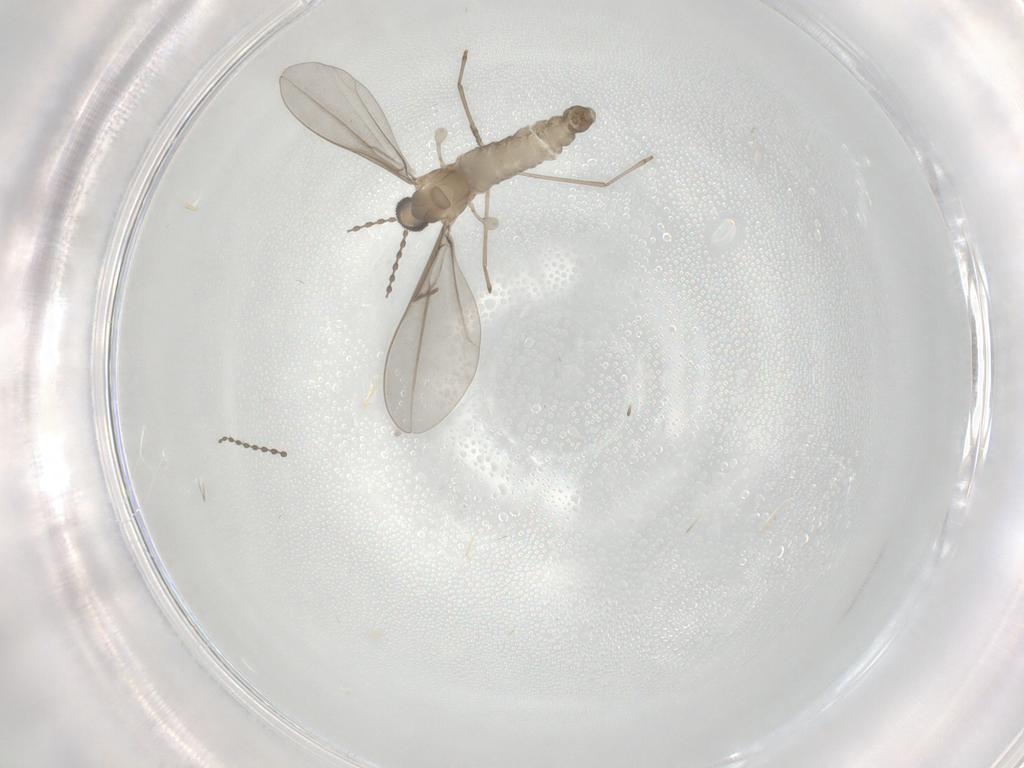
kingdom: Animalia
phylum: Arthropoda
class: Insecta
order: Diptera
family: Cecidomyiidae
